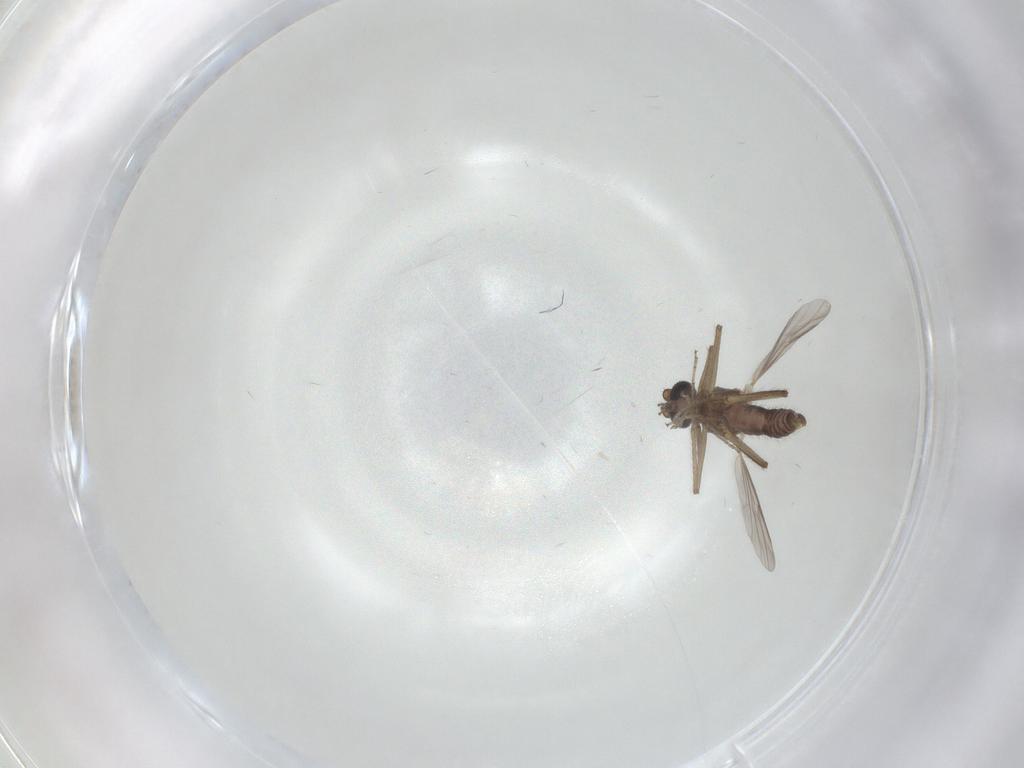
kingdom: Animalia
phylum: Arthropoda
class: Insecta
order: Diptera
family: Ceratopogonidae
